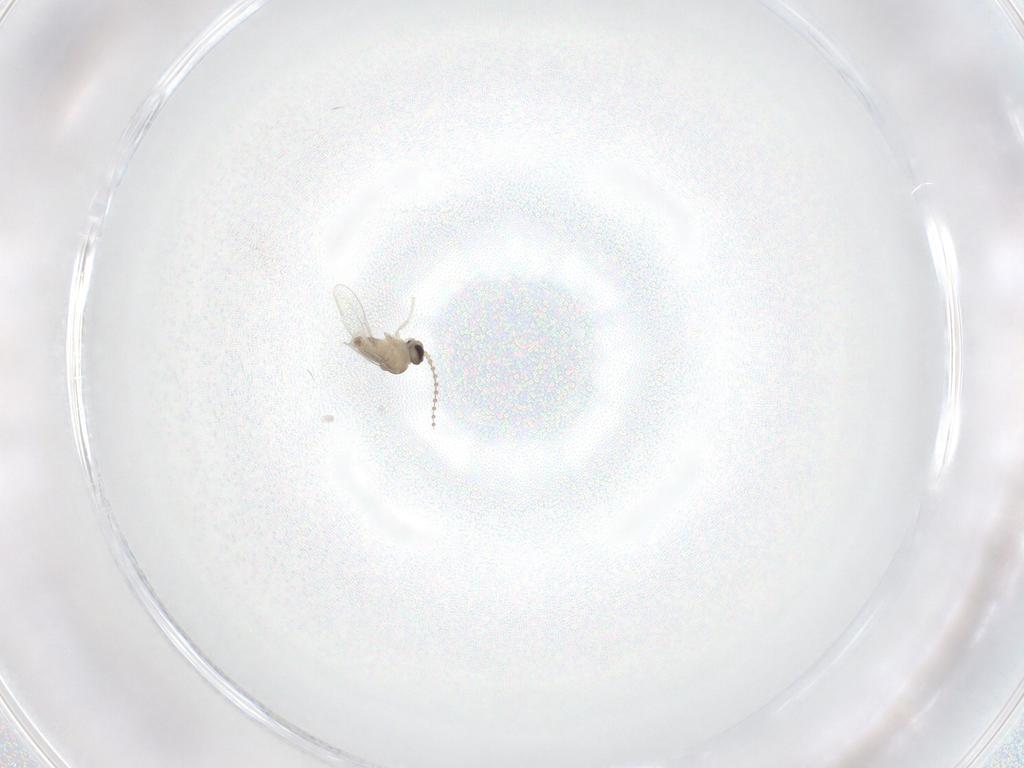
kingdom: Animalia
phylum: Arthropoda
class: Insecta
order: Diptera
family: Cecidomyiidae
